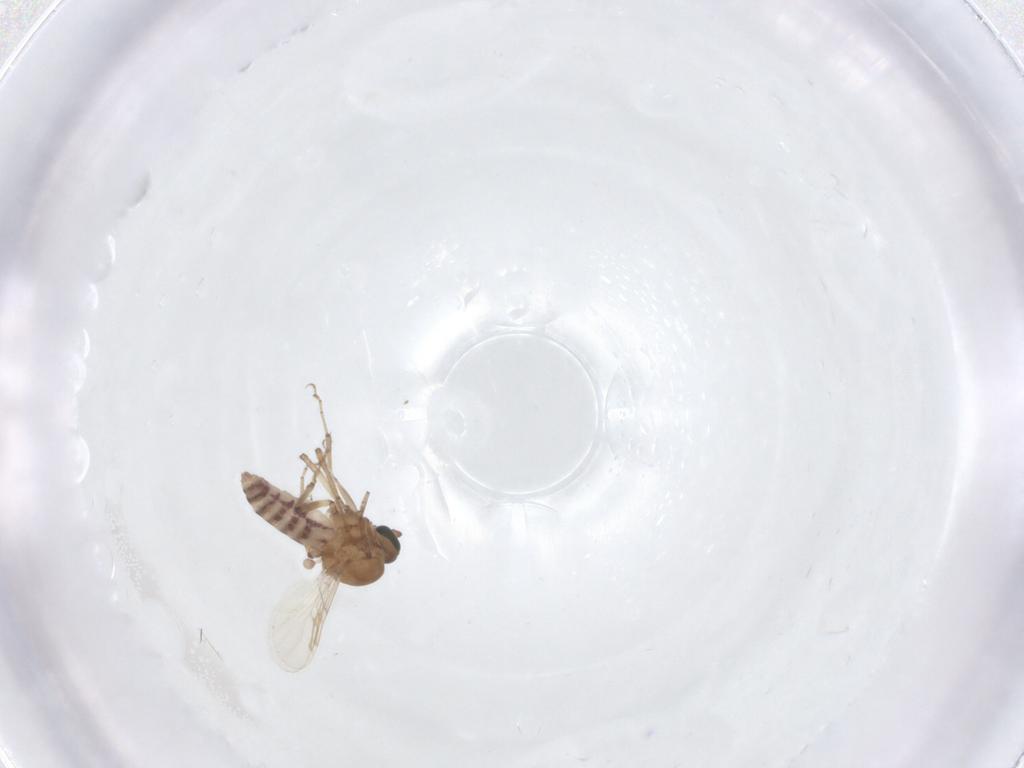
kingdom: Animalia
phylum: Arthropoda
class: Insecta
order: Diptera
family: Ceratopogonidae
